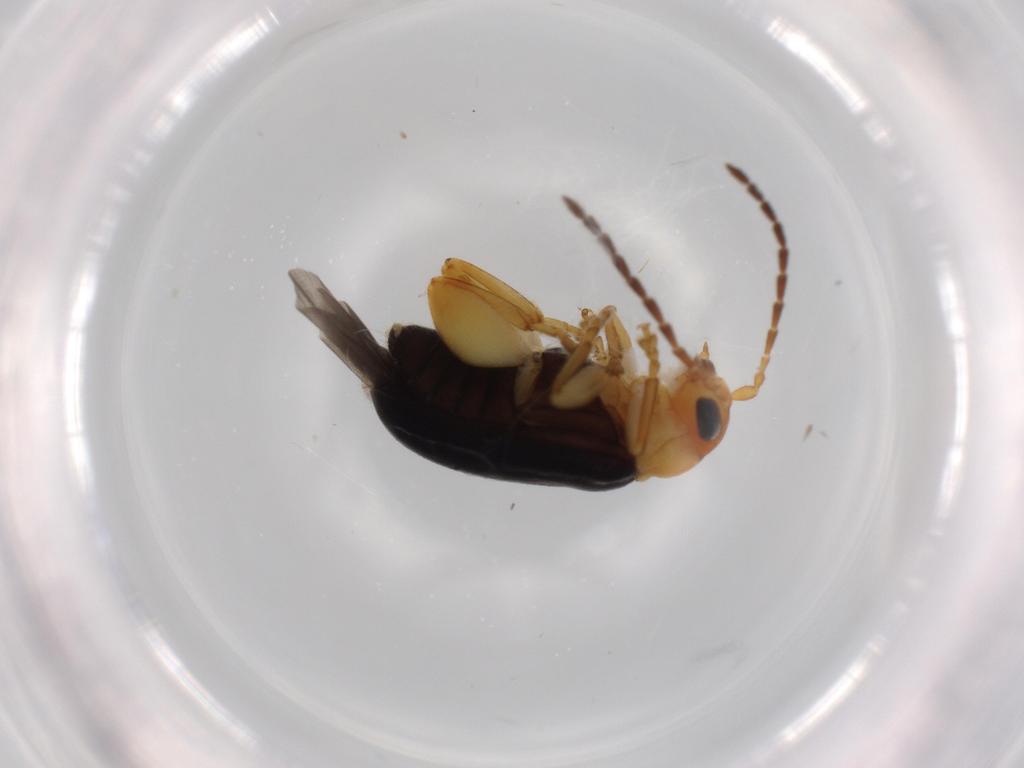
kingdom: Animalia
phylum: Arthropoda
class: Insecta
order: Coleoptera
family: Chrysomelidae
